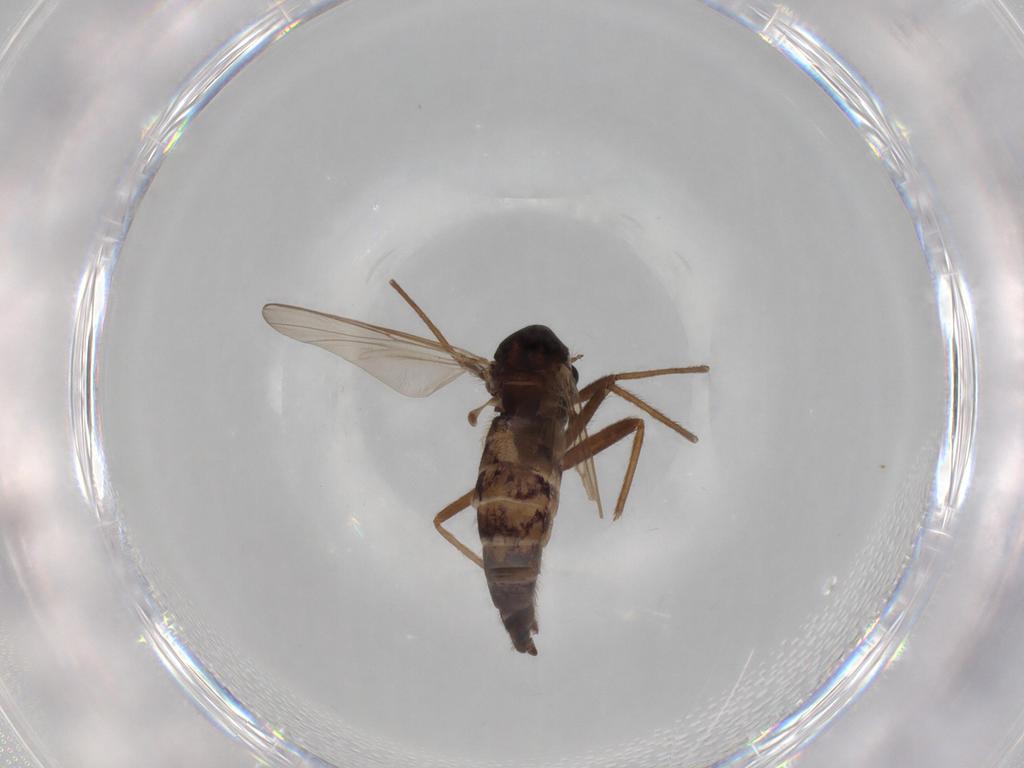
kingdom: Animalia
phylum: Arthropoda
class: Insecta
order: Diptera
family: Chironomidae
